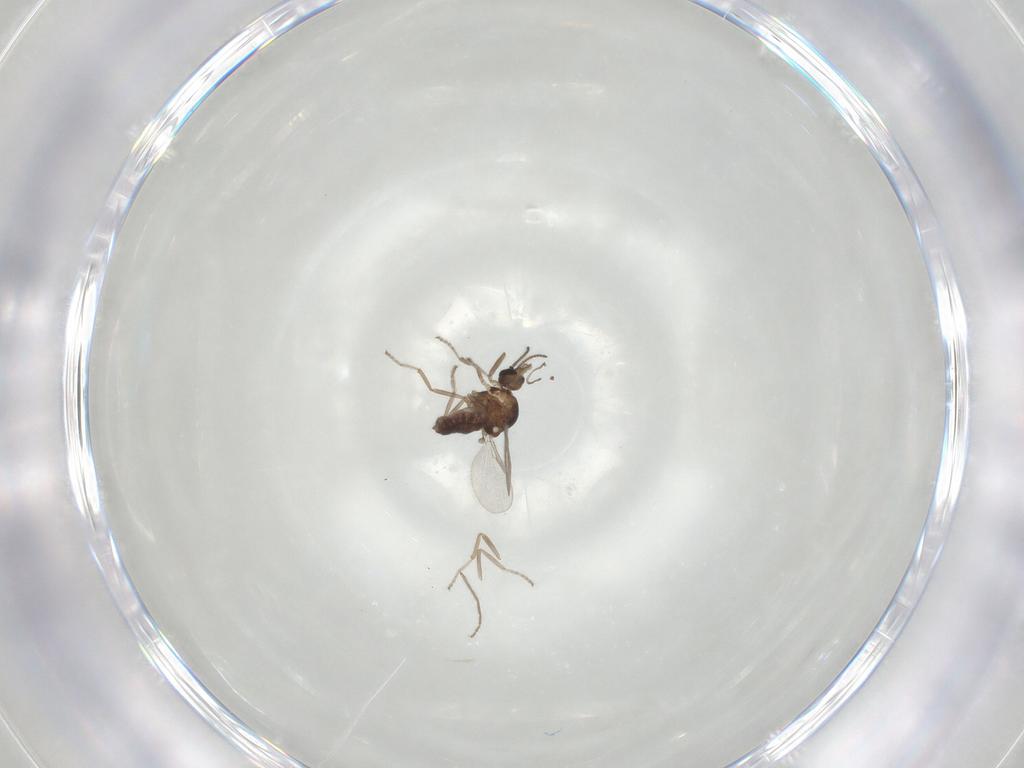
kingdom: Animalia
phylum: Arthropoda
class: Insecta
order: Diptera
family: Ceratopogonidae
